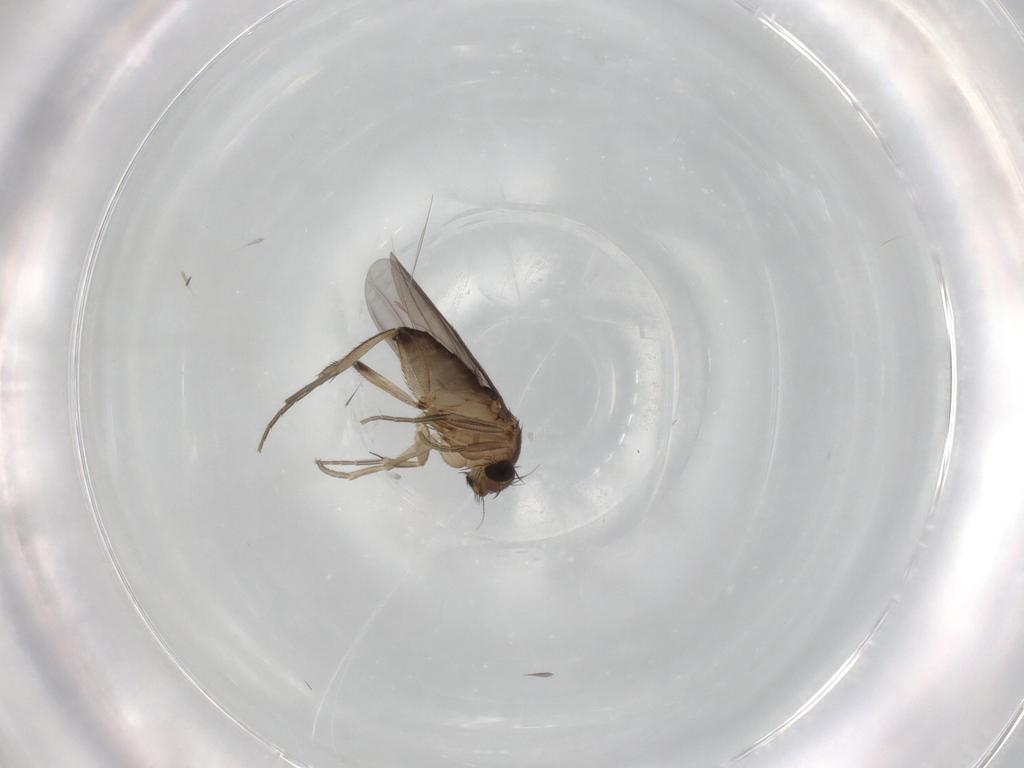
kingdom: Animalia
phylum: Arthropoda
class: Insecta
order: Diptera
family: Phoridae
